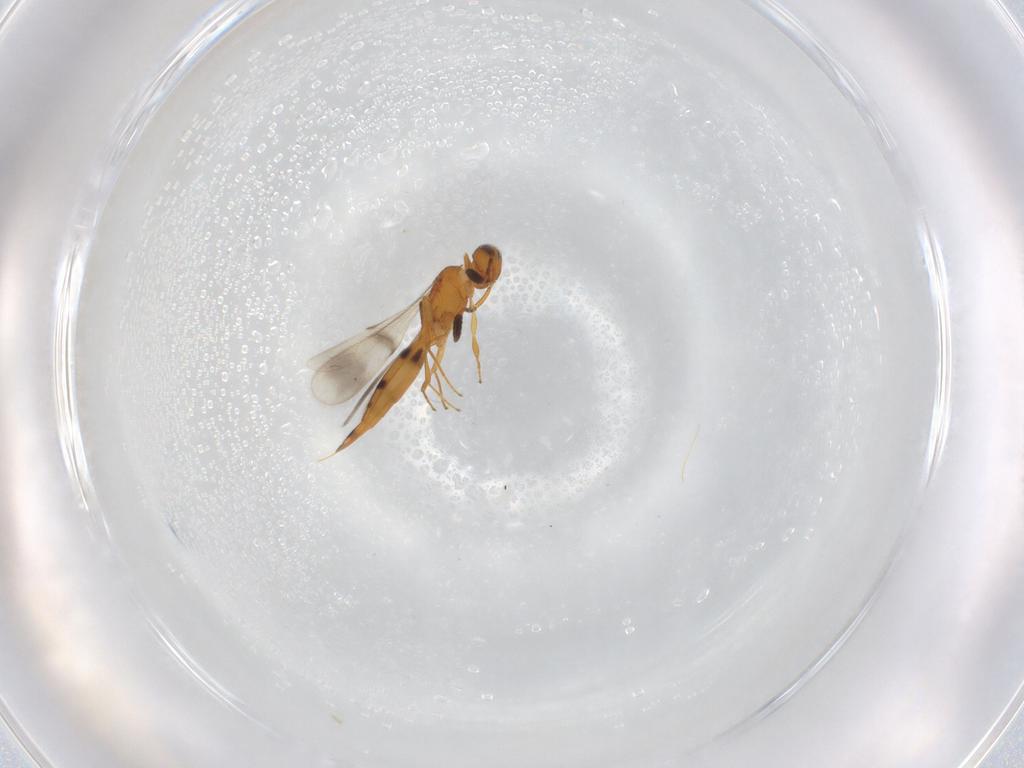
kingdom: Animalia
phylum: Arthropoda
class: Insecta
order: Hymenoptera
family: Scelionidae
